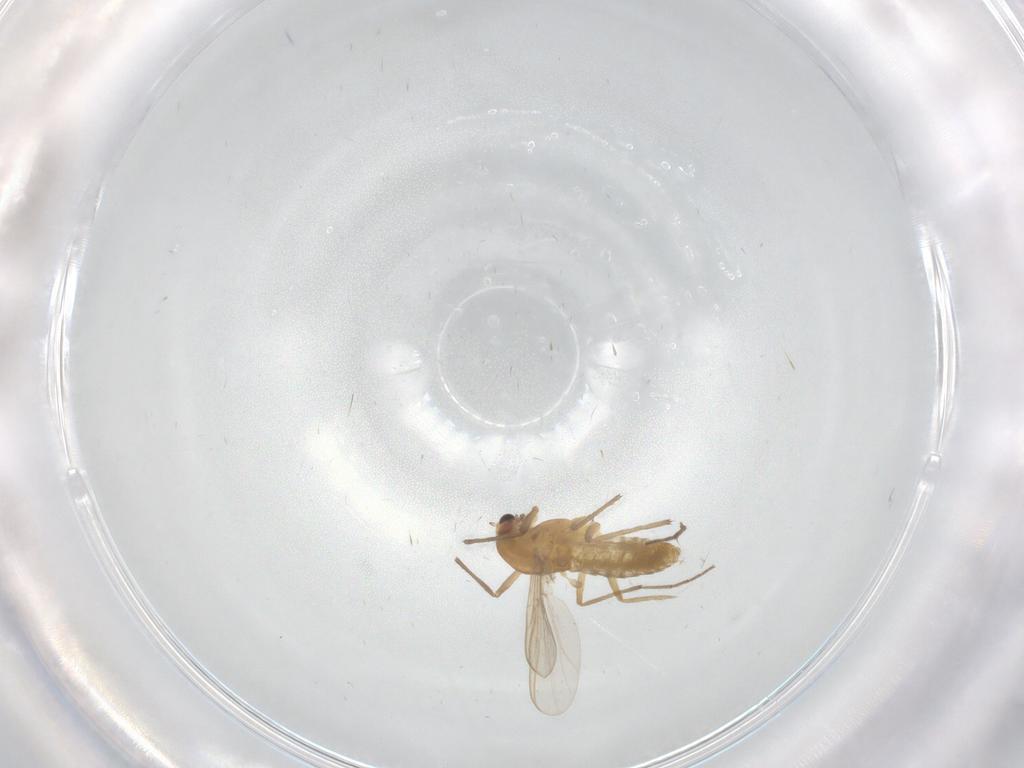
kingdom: Animalia
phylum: Arthropoda
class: Insecta
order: Diptera
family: Chironomidae
